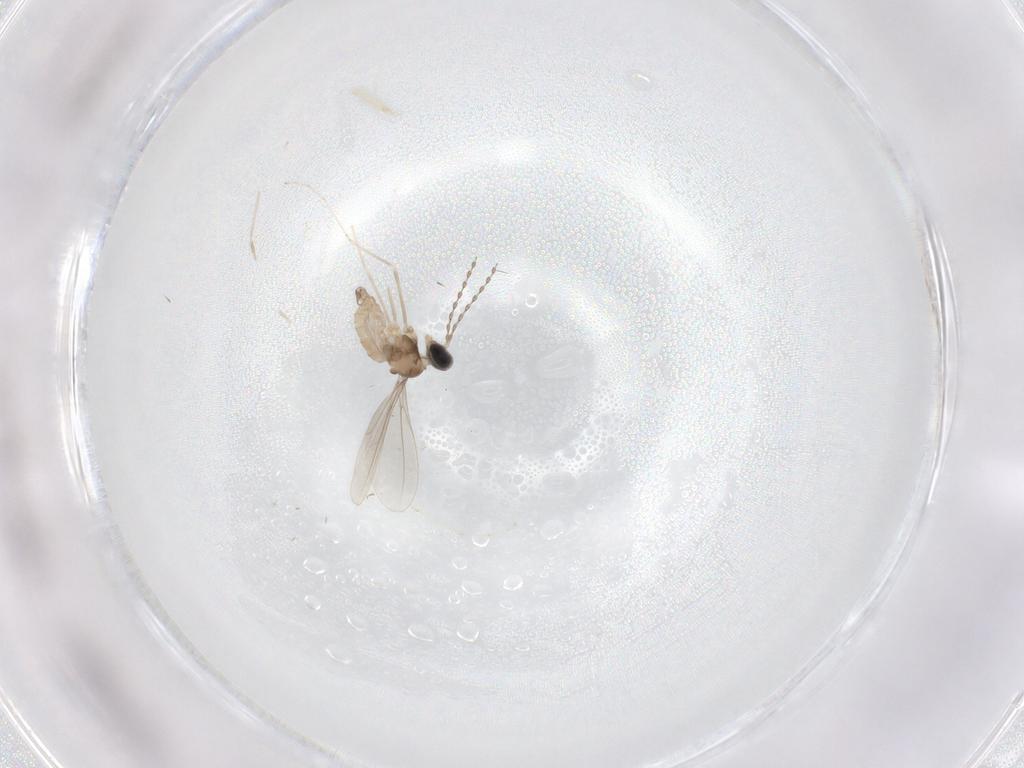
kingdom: Animalia
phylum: Arthropoda
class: Insecta
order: Diptera
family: Cecidomyiidae
